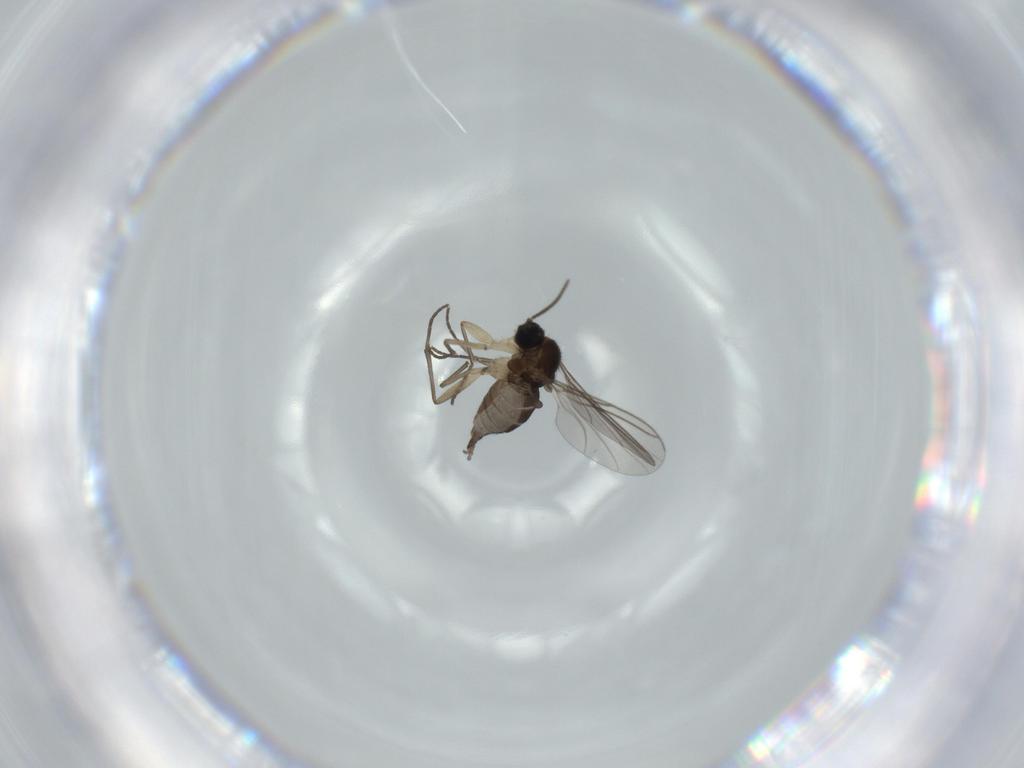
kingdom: Animalia
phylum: Arthropoda
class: Insecta
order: Diptera
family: Sciaridae
